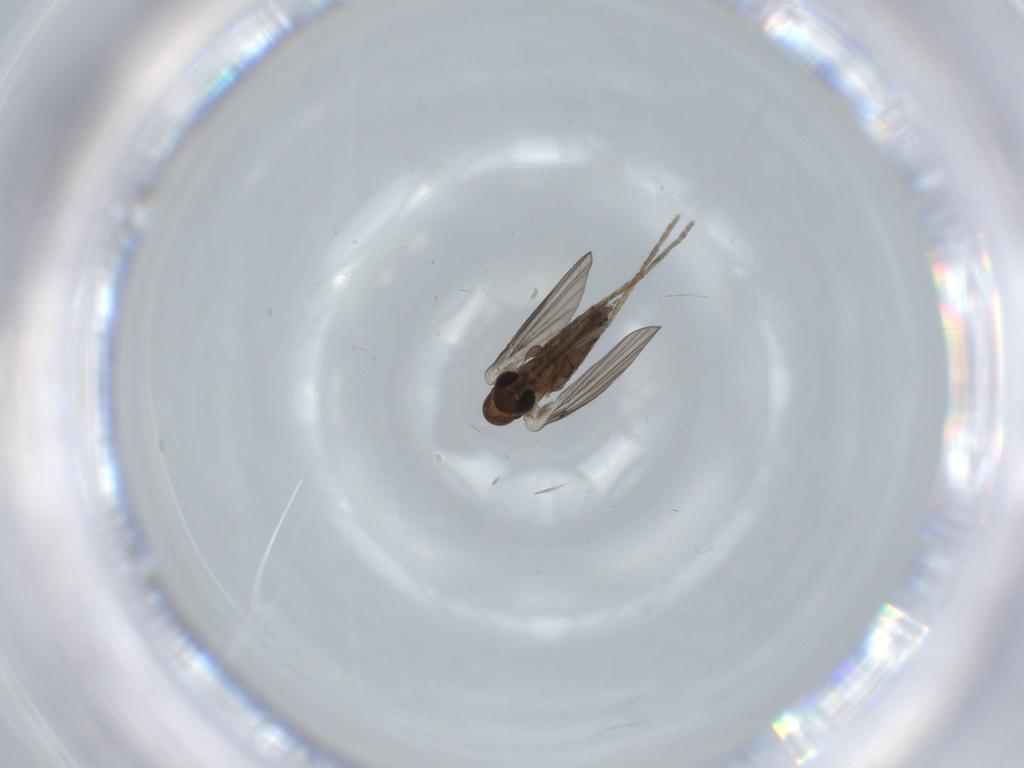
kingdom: Animalia
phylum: Arthropoda
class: Insecta
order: Diptera
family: Psychodidae
